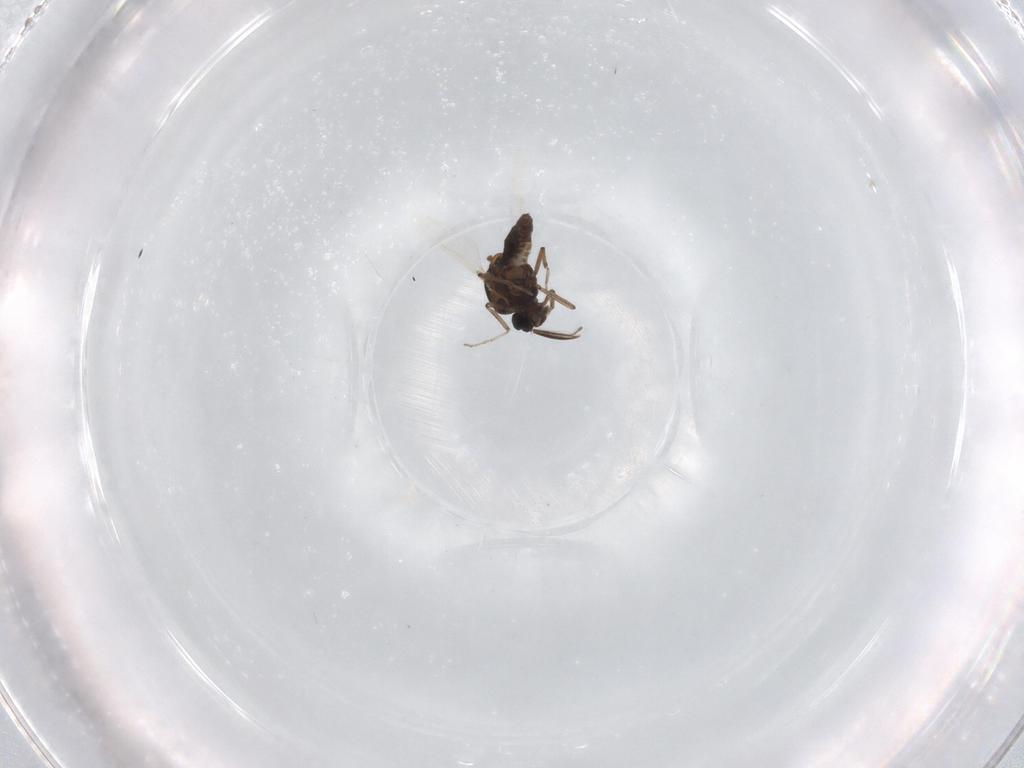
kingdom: Animalia
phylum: Arthropoda
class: Insecta
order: Diptera
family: Ceratopogonidae
